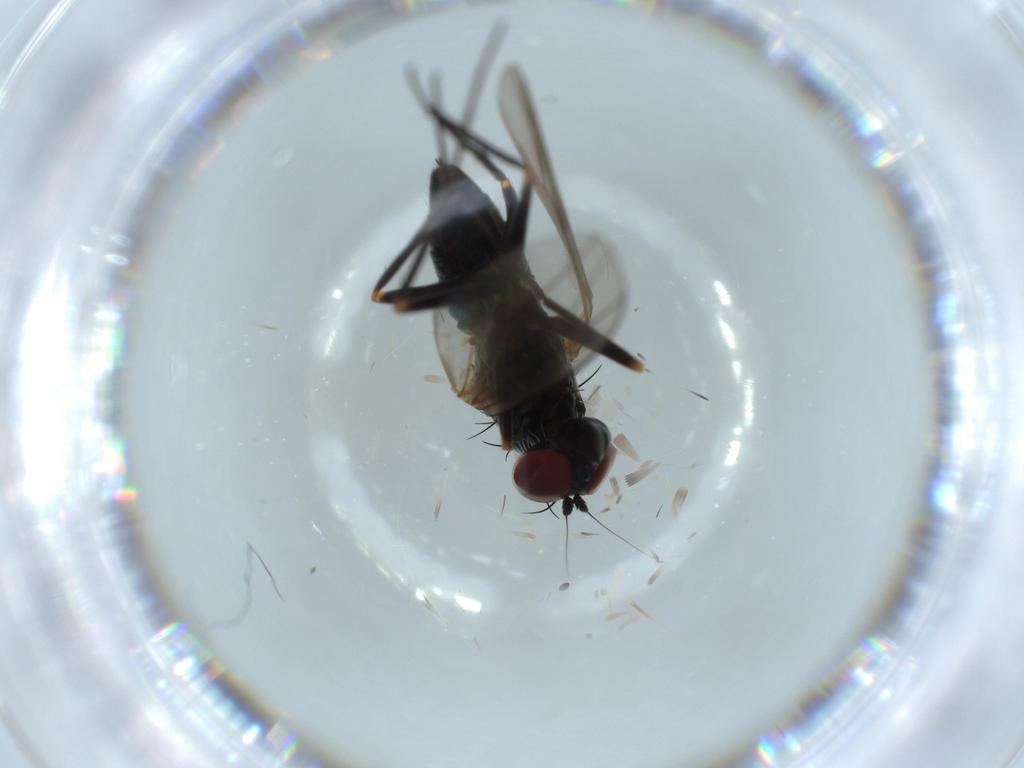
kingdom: Animalia
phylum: Arthropoda
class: Insecta
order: Diptera
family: Dolichopodidae
